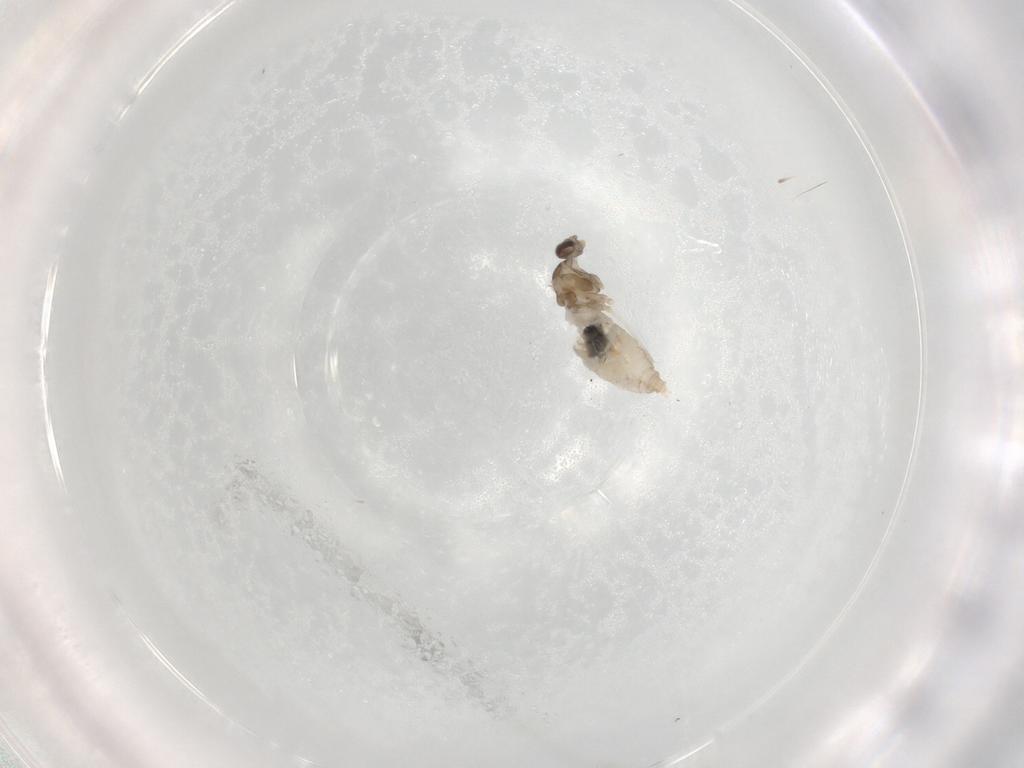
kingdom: Animalia
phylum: Arthropoda
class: Insecta
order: Diptera
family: Cecidomyiidae
